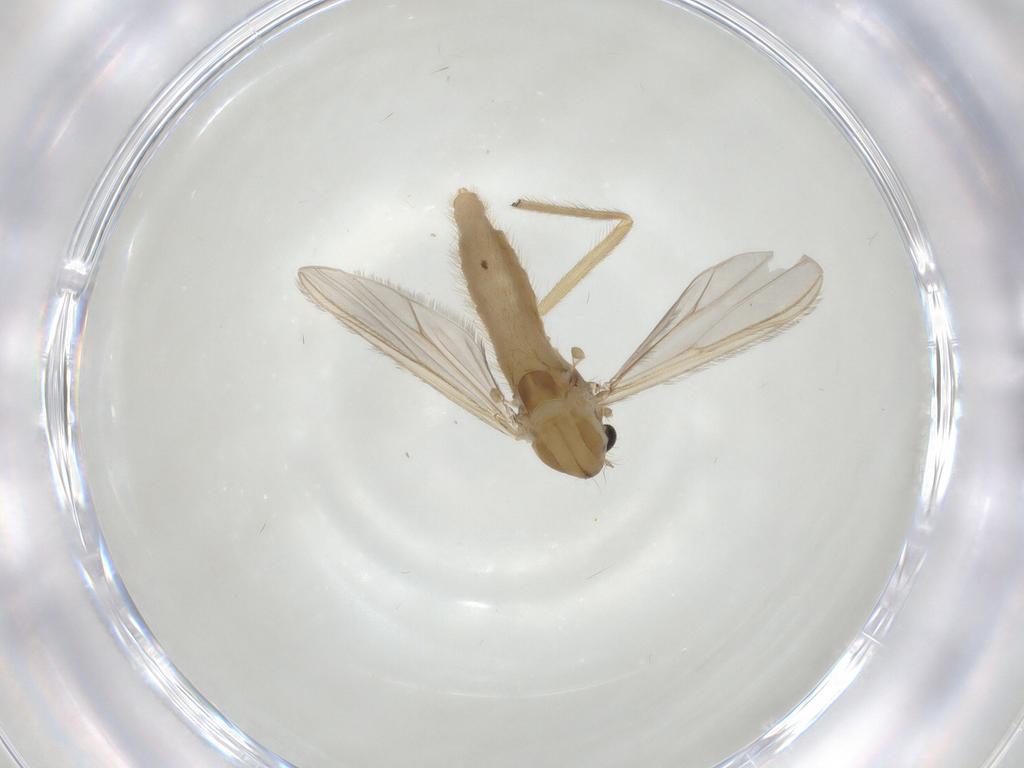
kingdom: Animalia
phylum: Arthropoda
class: Insecta
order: Diptera
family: Chironomidae
